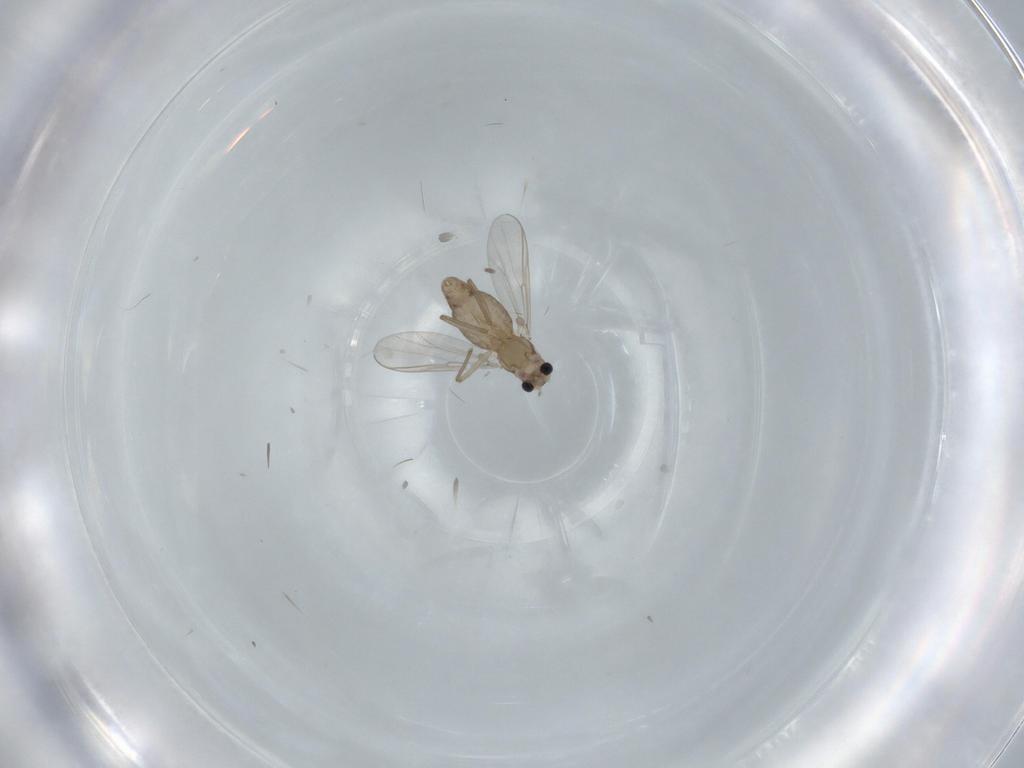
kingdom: Animalia
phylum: Arthropoda
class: Insecta
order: Diptera
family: Chironomidae
